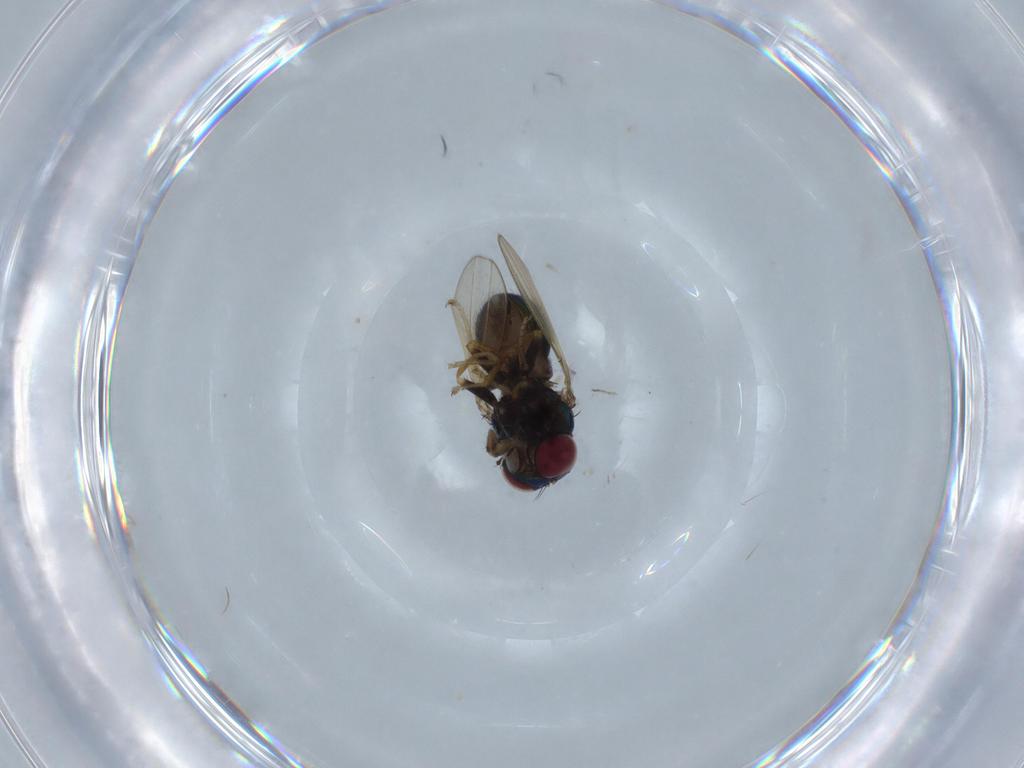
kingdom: Animalia
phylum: Arthropoda
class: Insecta
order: Diptera
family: Ephydridae
